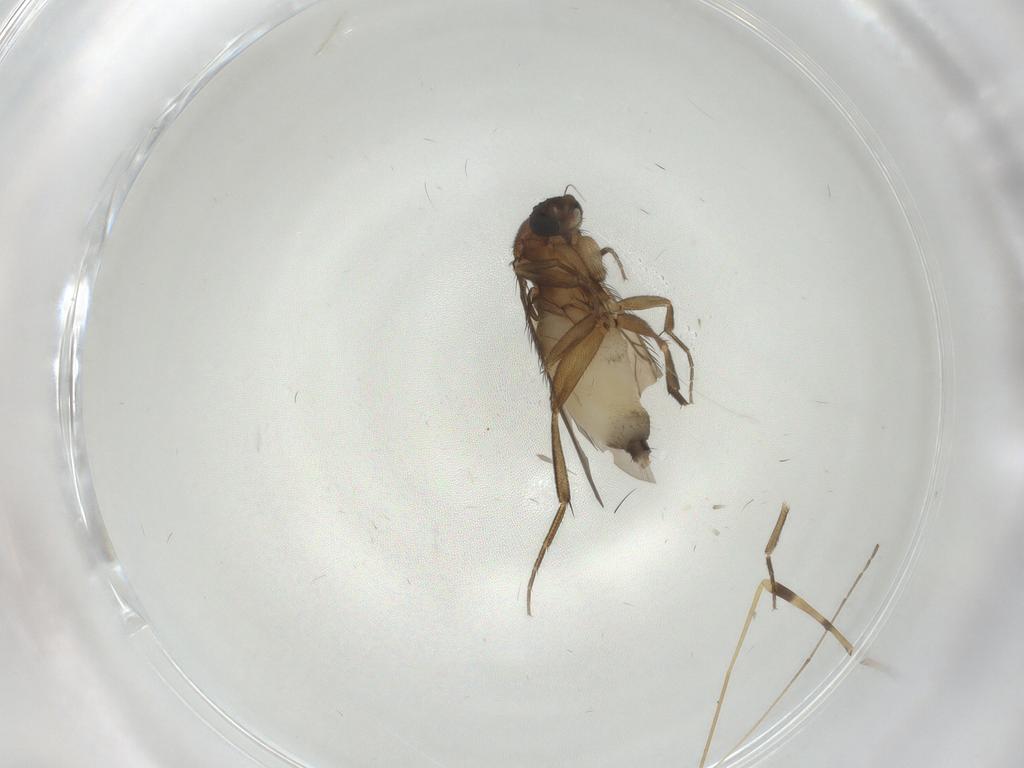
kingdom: Animalia
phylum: Arthropoda
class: Insecta
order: Diptera
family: Phoridae
